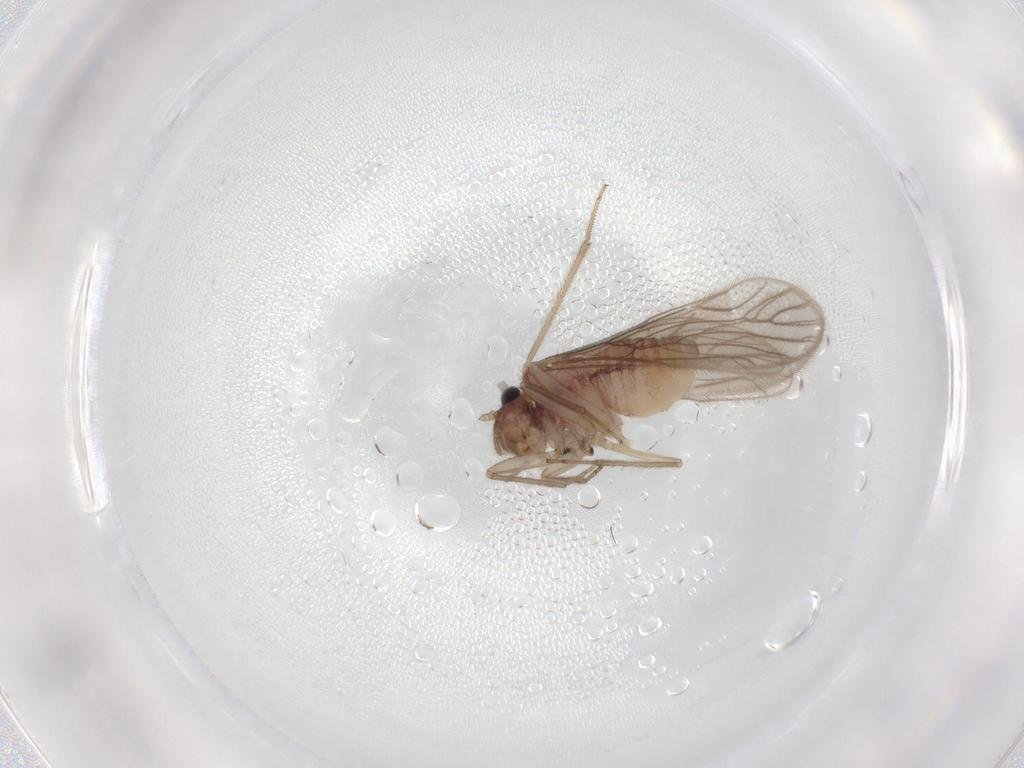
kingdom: Animalia
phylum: Arthropoda
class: Insecta
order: Psocodea
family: Cladiopsocidae
